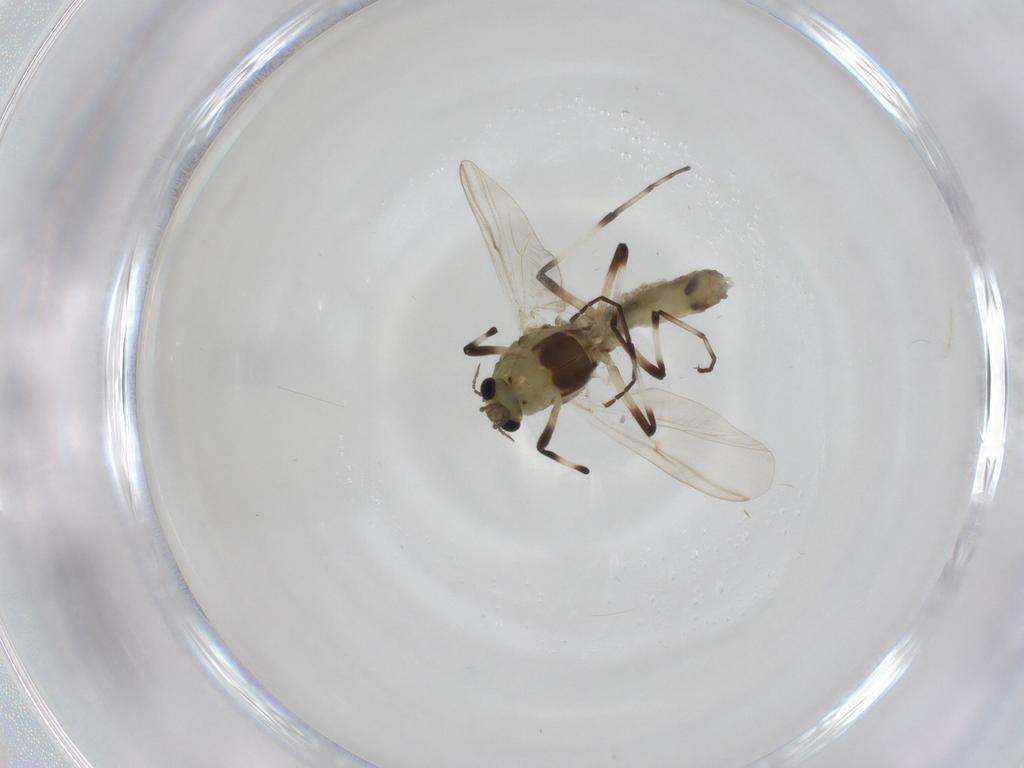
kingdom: Animalia
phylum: Arthropoda
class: Insecta
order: Diptera
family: Chironomidae
